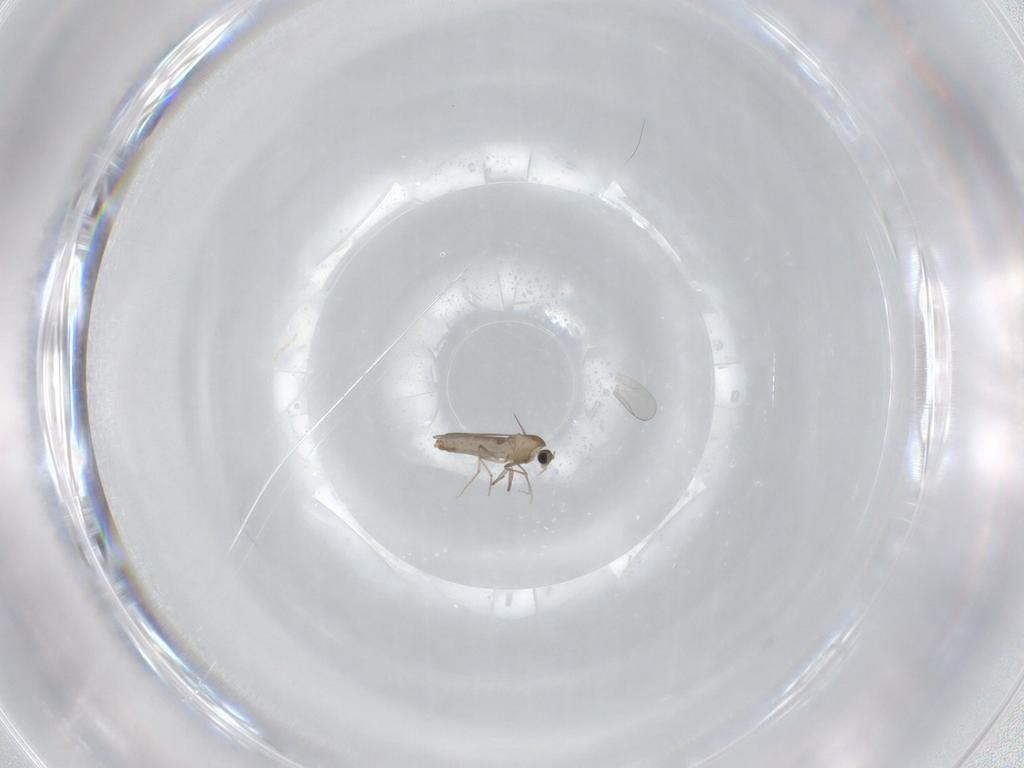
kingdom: Animalia
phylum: Arthropoda
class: Insecta
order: Diptera
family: Chironomidae
